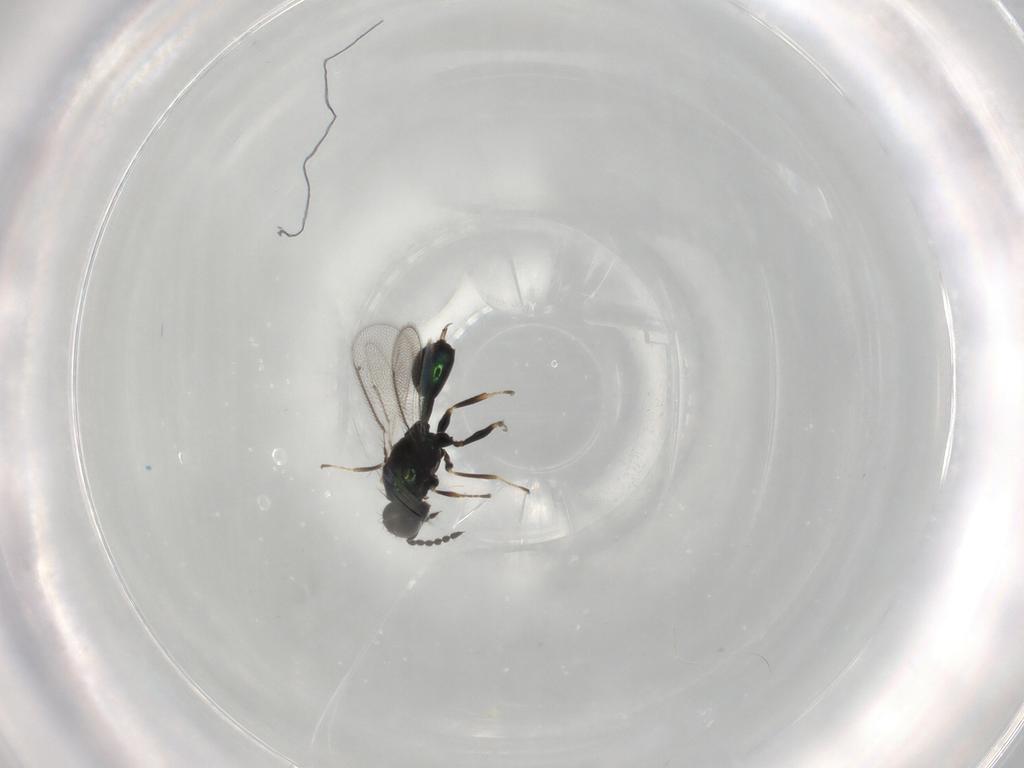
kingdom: Animalia
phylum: Arthropoda
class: Insecta
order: Hymenoptera
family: Eulophidae
